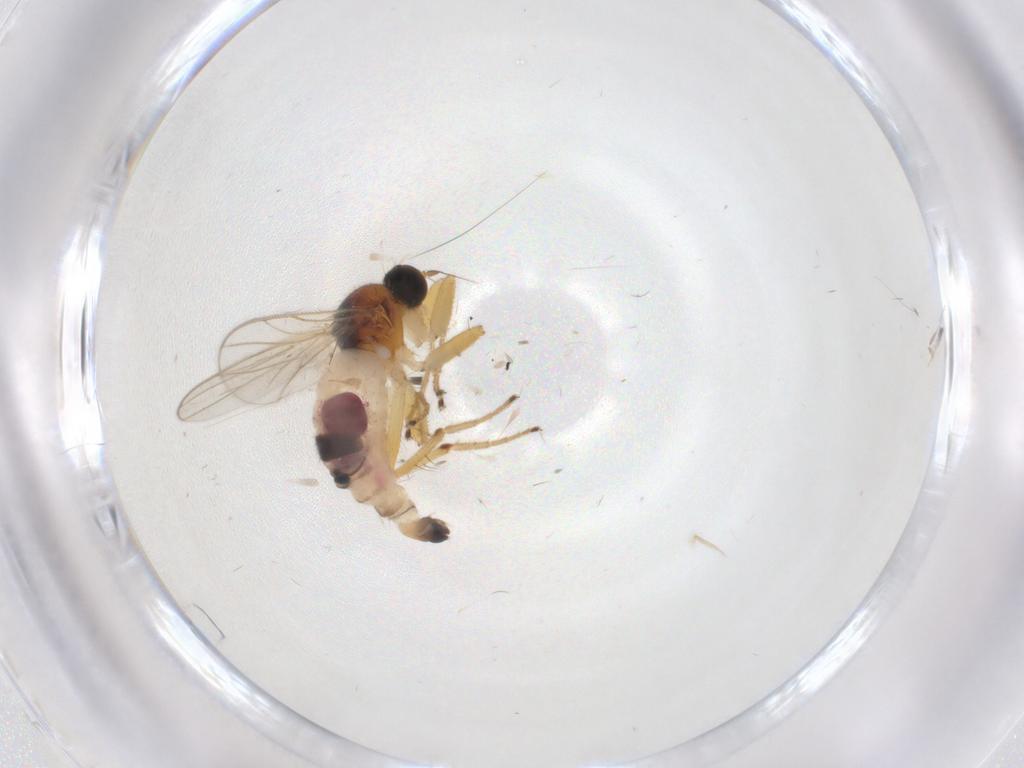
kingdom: Animalia
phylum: Arthropoda
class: Insecta
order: Diptera
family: Hybotidae
